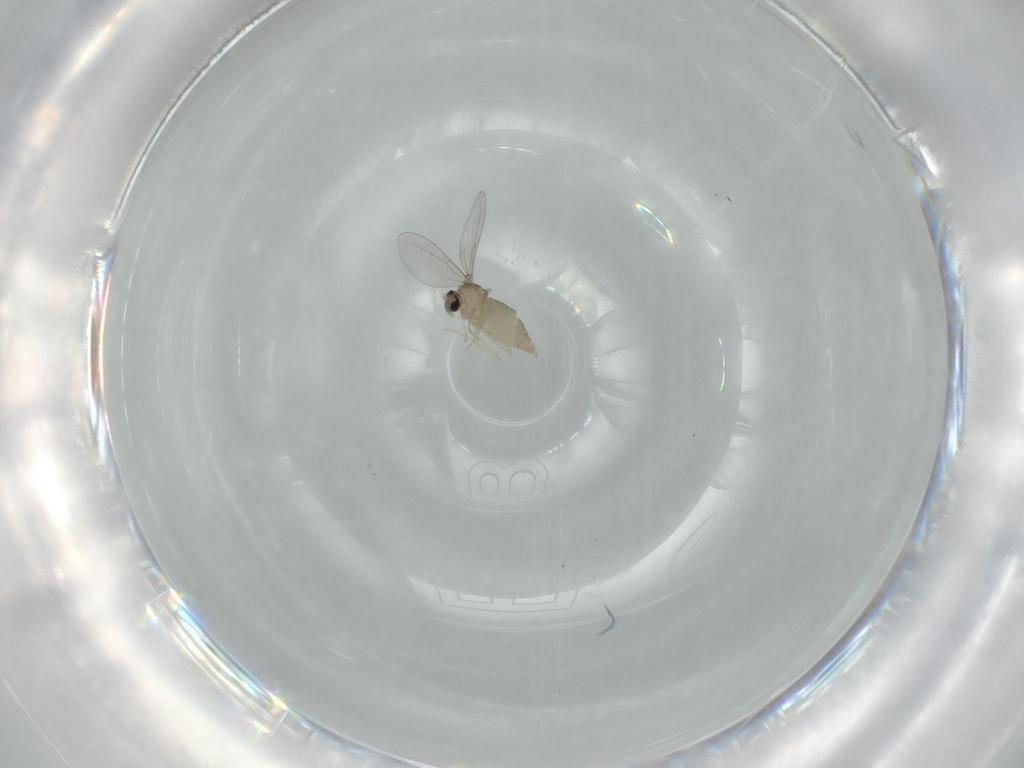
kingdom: Animalia
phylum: Arthropoda
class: Insecta
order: Diptera
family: Cecidomyiidae
